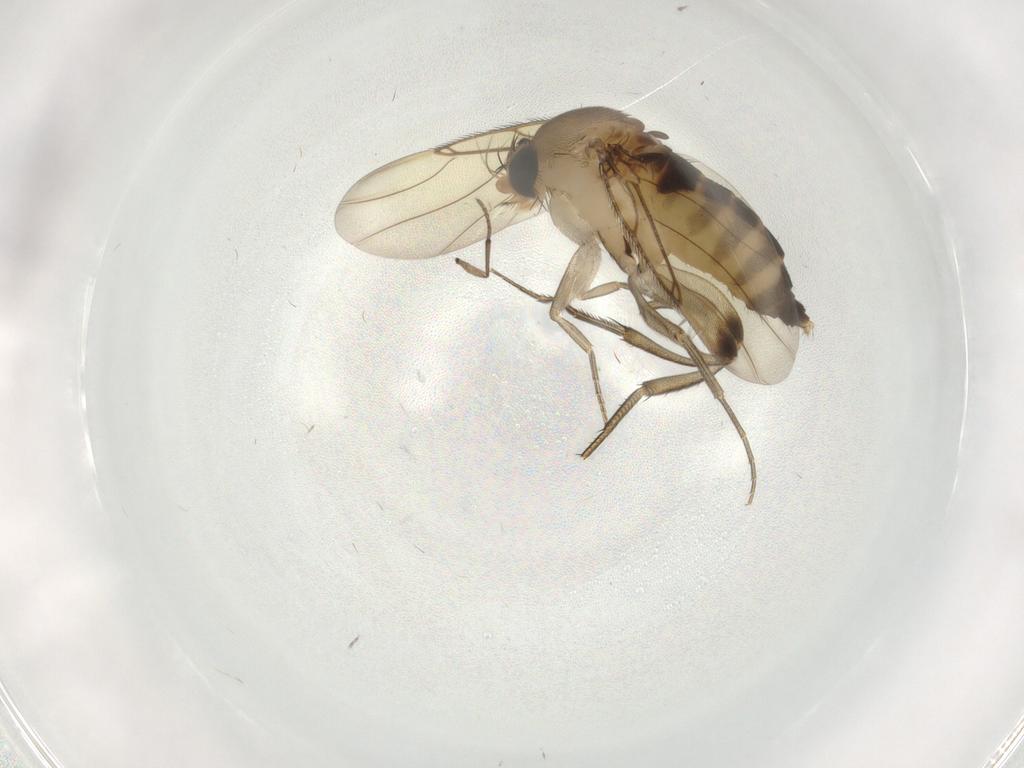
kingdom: Animalia
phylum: Arthropoda
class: Insecta
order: Diptera
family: Phoridae
